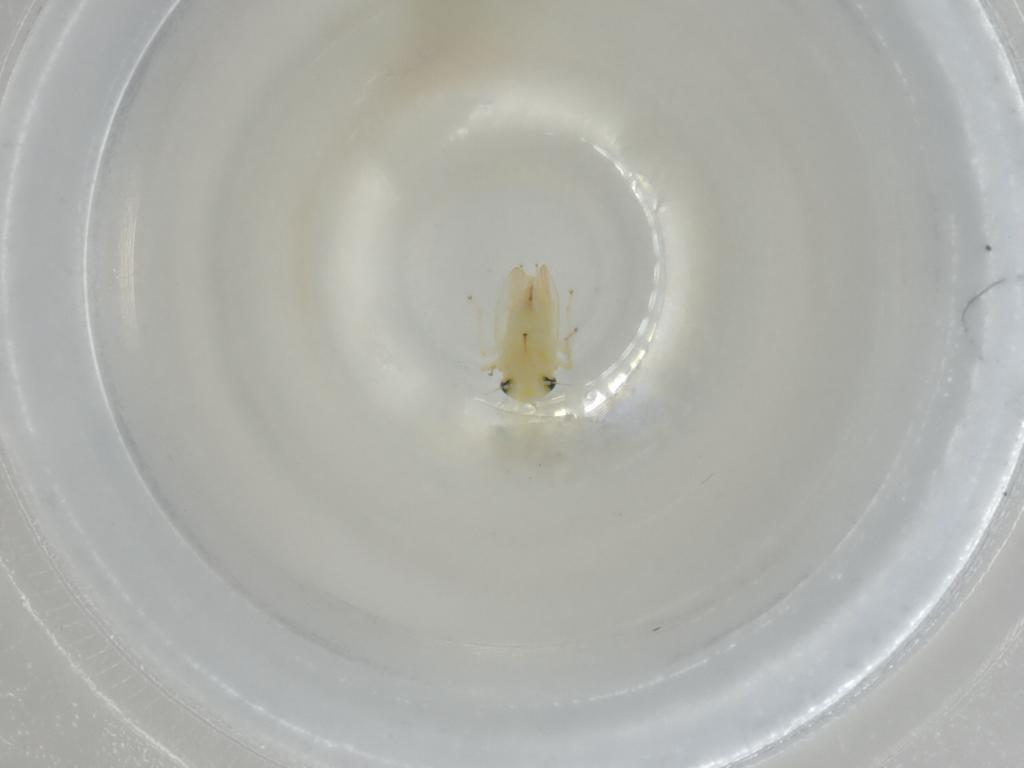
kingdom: Animalia
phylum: Arthropoda
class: Insecta
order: Hemiptera
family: Cicadellidae
